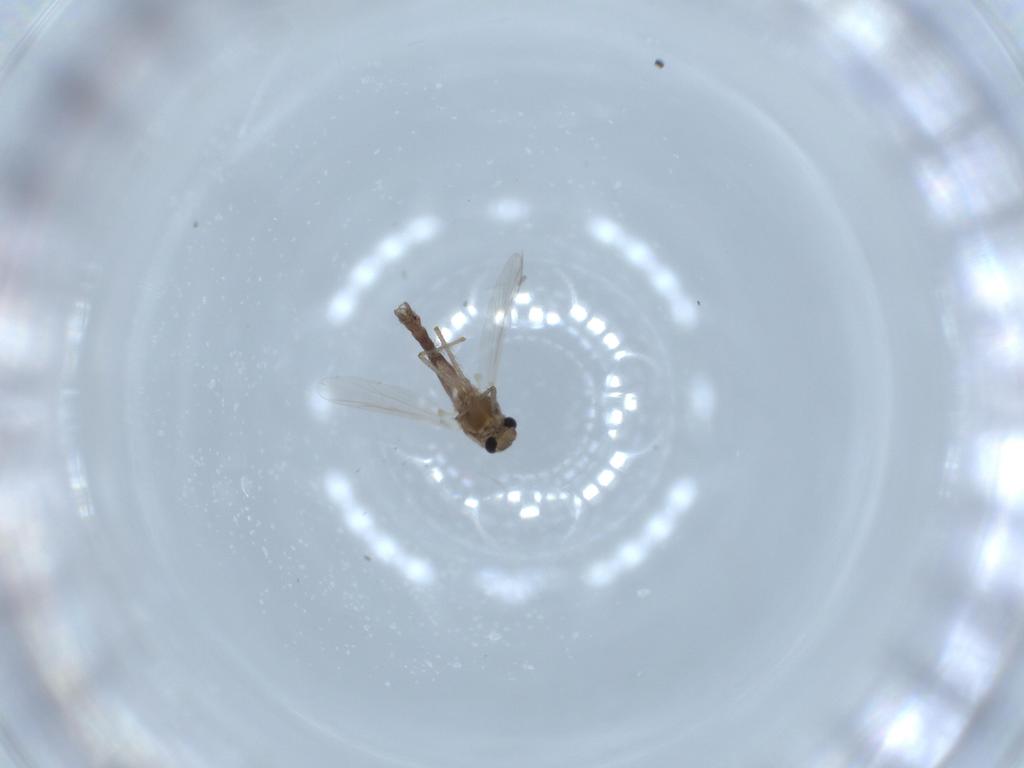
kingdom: Animalia
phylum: Arthropoda
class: Insecta
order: Diptera
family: Chironomidae
